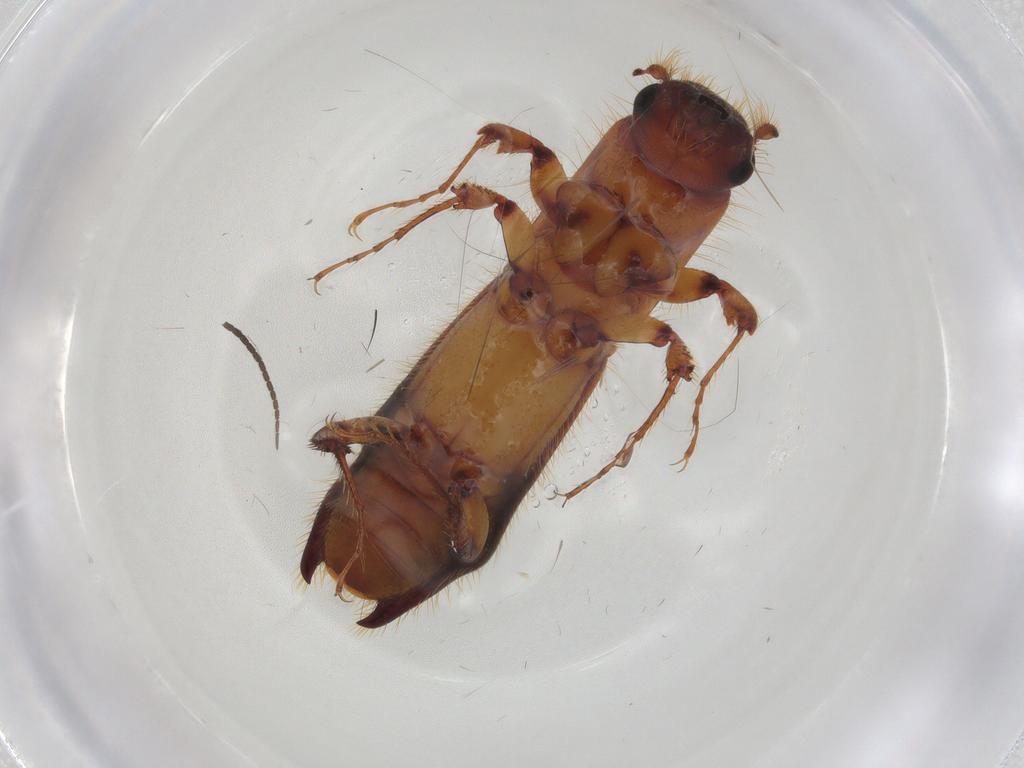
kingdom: Animalia
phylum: Arthropoda
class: Insecta
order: Coleoptera
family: Curculionidae
